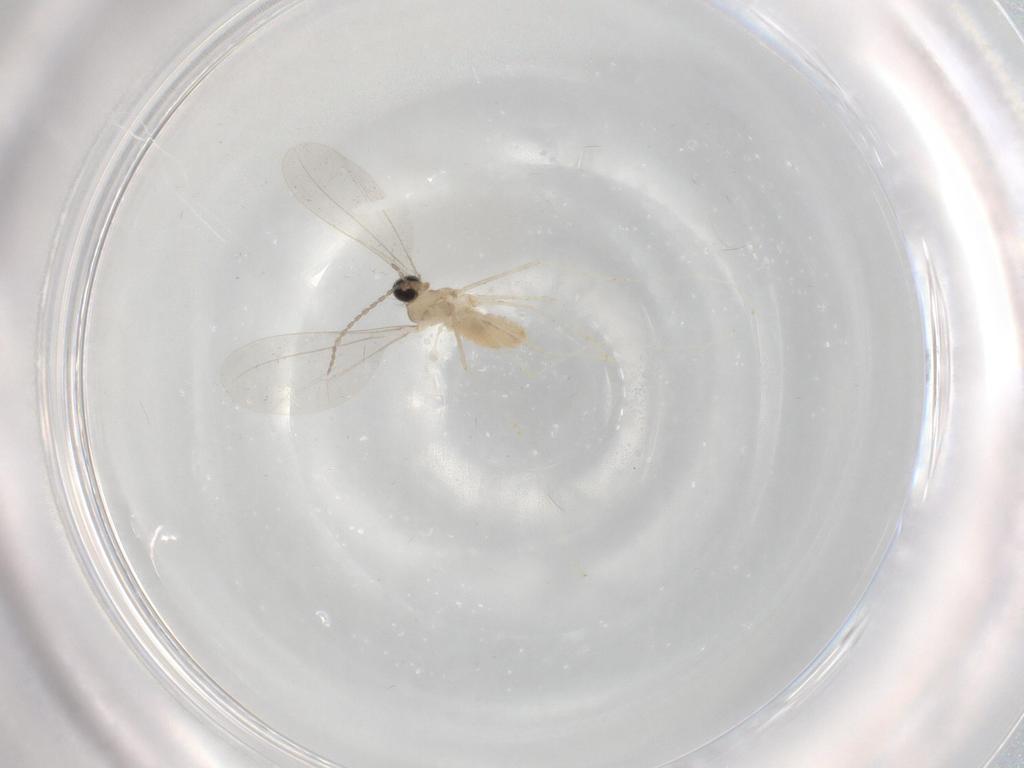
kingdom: Animalia
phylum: Arthropoda
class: Insecta
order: Diptera
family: Cecidomyiidae
